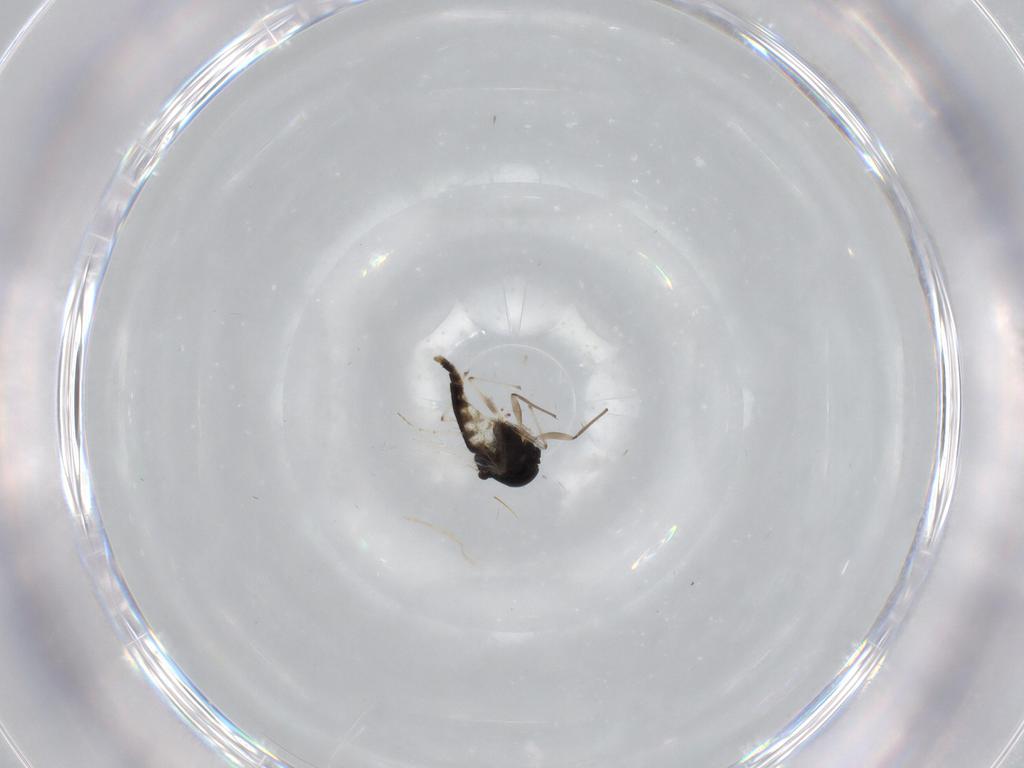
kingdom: Animalia
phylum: Arthropoda
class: Insecta
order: Diptera
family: Chironomidae
